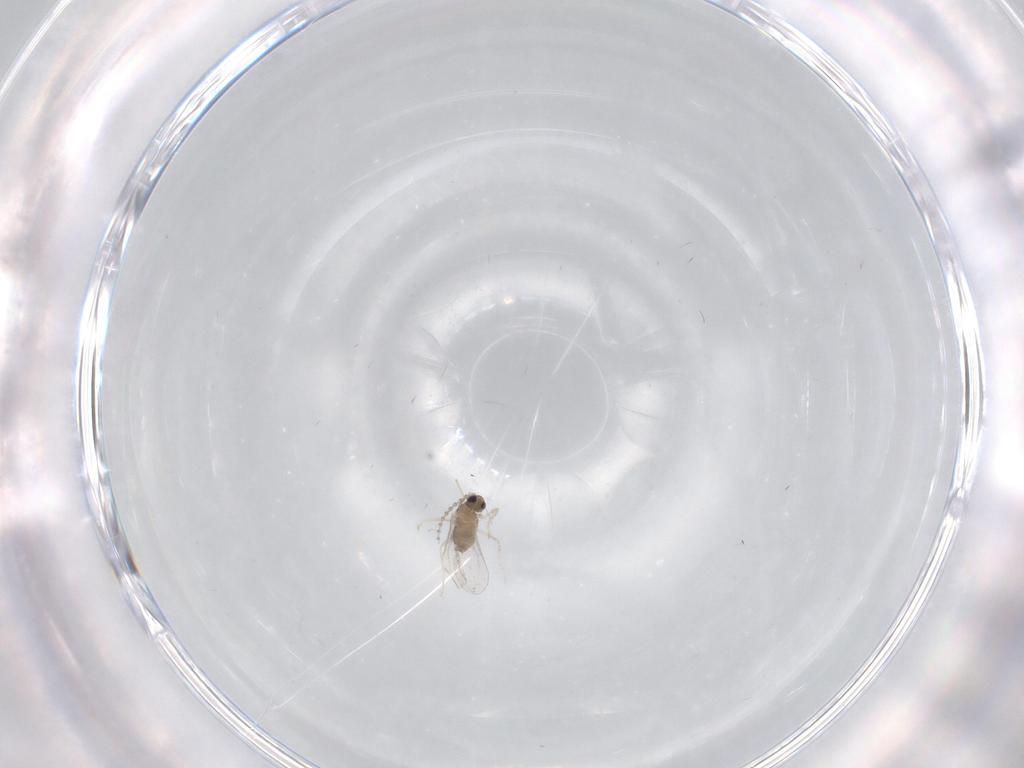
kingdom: Animalia
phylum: Arthropoda
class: Insecta
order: Diptera
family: Cecidomyiidae
